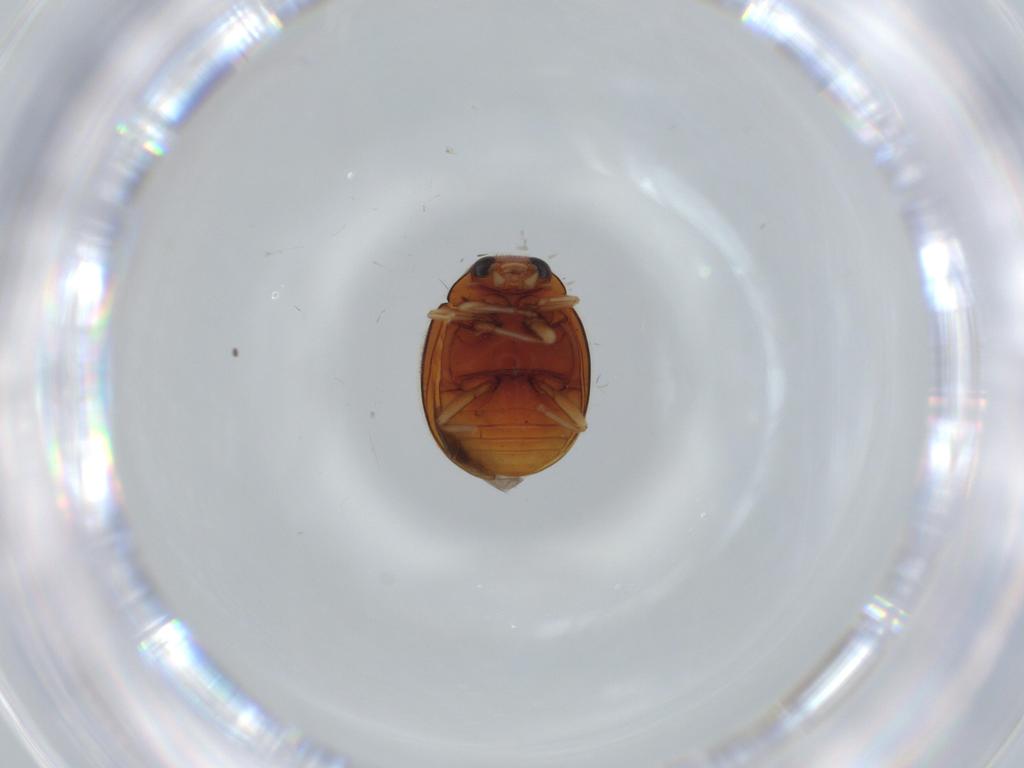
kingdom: Animalia
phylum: Arthropoda
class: Insecta
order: Coleoptera
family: Coccinellidae
